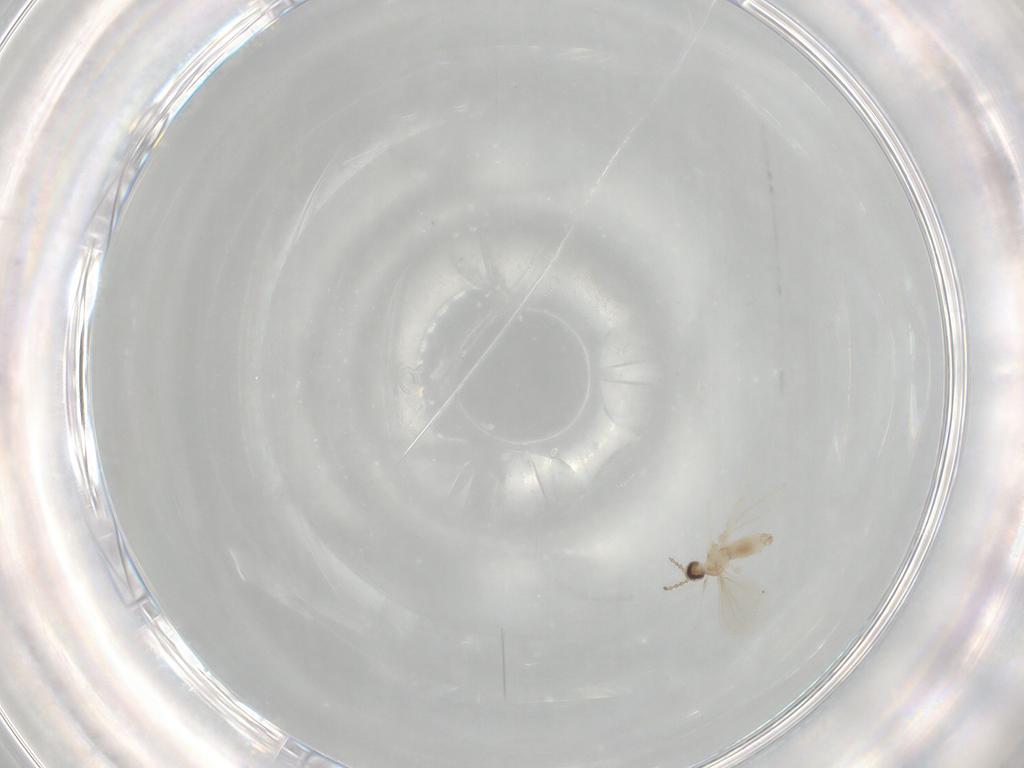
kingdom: Animalia
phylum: Arthropoda
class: Insecta
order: Diptera
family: Cecidomyiidae
